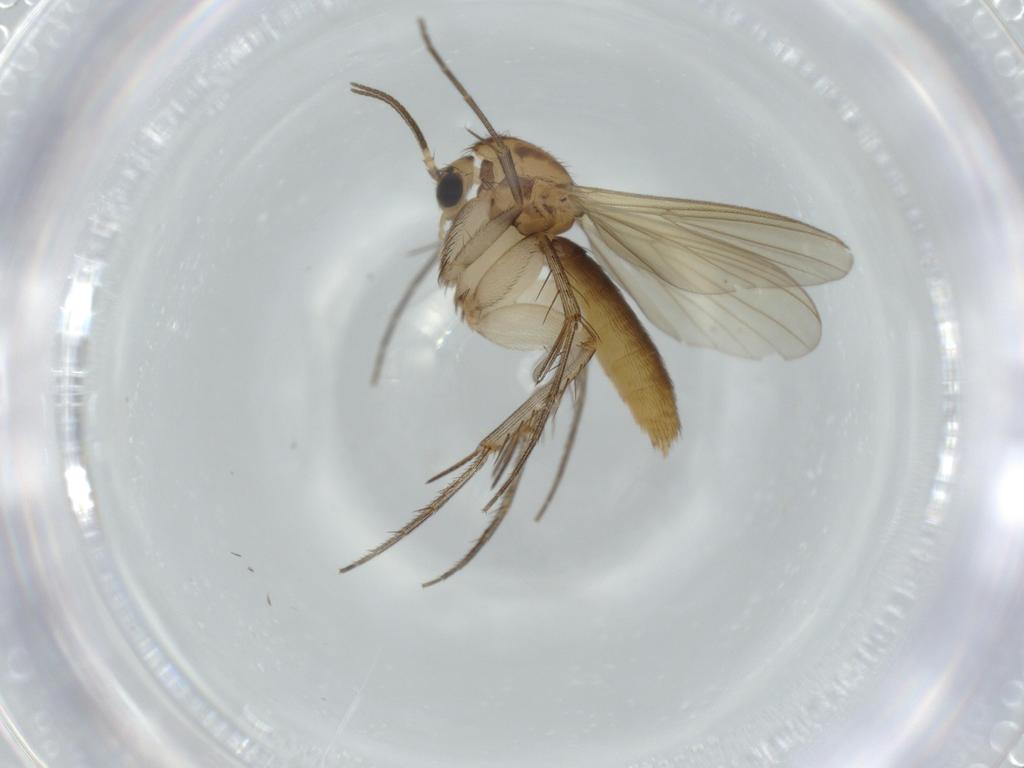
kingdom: Animalia
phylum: Arthropoda
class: Insecta
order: Diptera
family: Mycetophilidae
